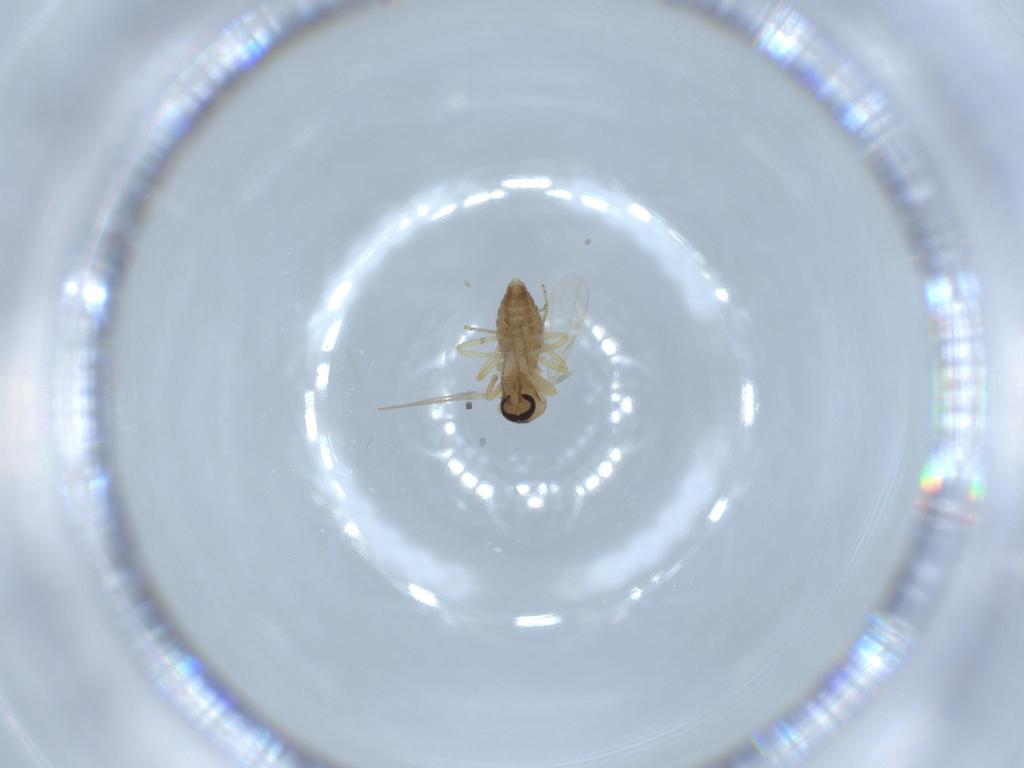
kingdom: Animalia
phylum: Arthropoda
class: Insecta
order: Diptera
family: Ceratopogonidae
